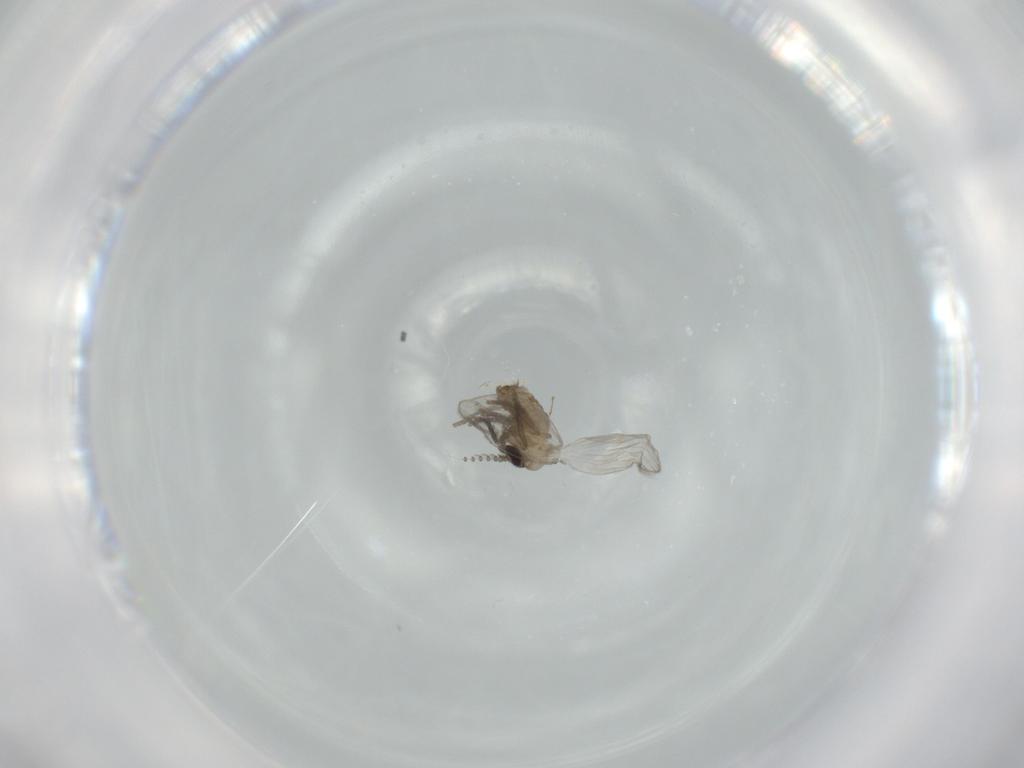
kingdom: Animalia
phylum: Arthropoda
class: Insecta
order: Diptera
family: Psychodidae
